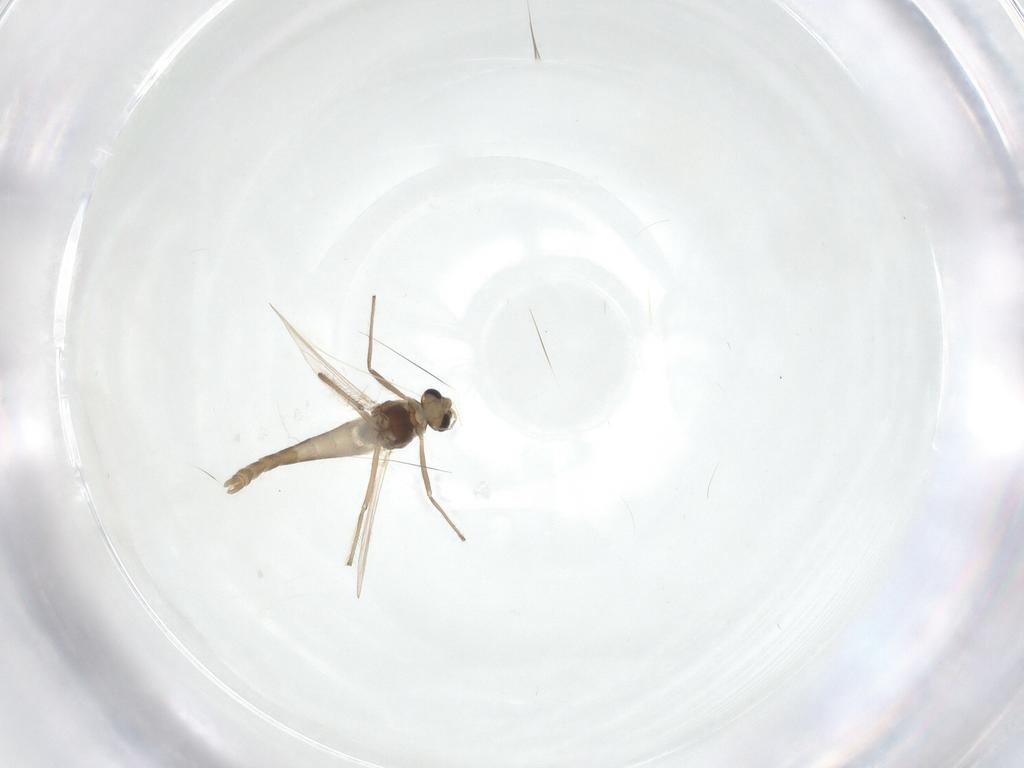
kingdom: Animalia
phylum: Arthropoda
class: Insecta
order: Diptera
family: Chironomidae
